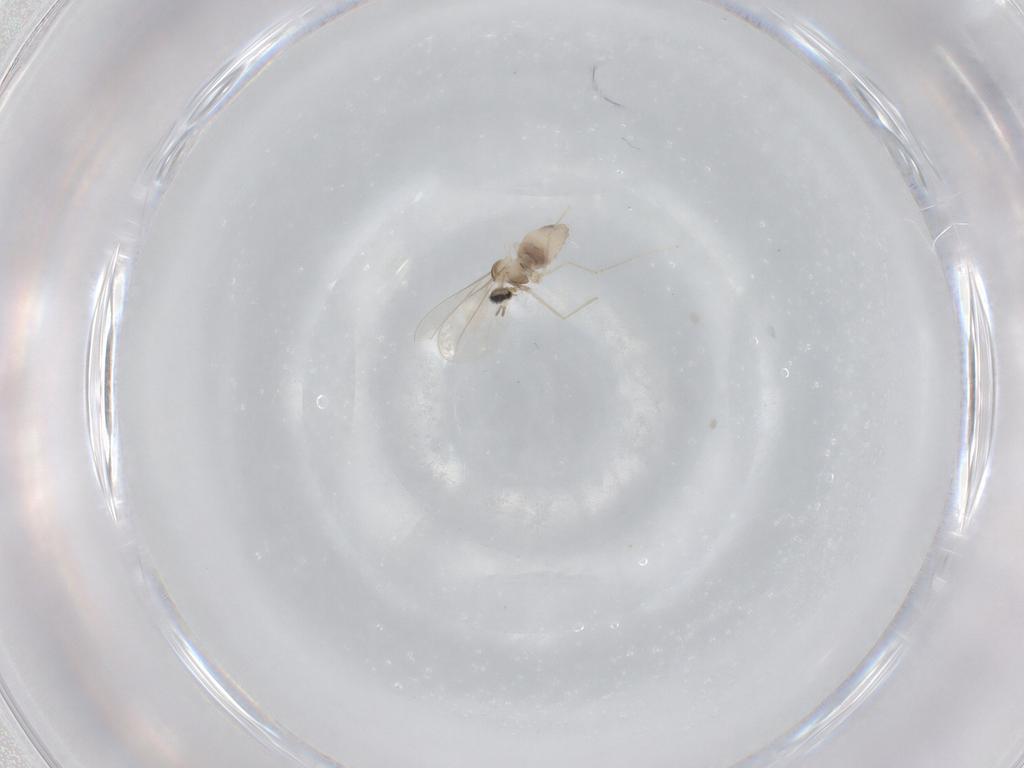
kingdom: Animalia
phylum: Arthropoda
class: Insecta
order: Diptera
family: Cecidomyiidae
